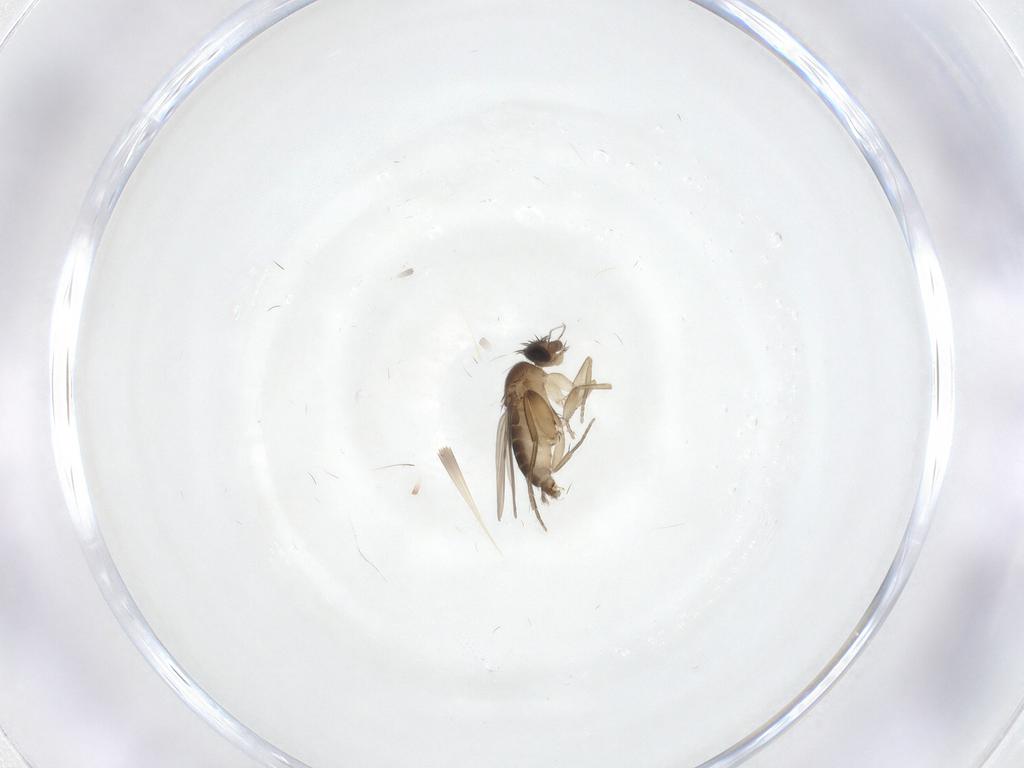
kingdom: Animalia
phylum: Arthropoda
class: Insecta
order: Diptera
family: Phoridae
